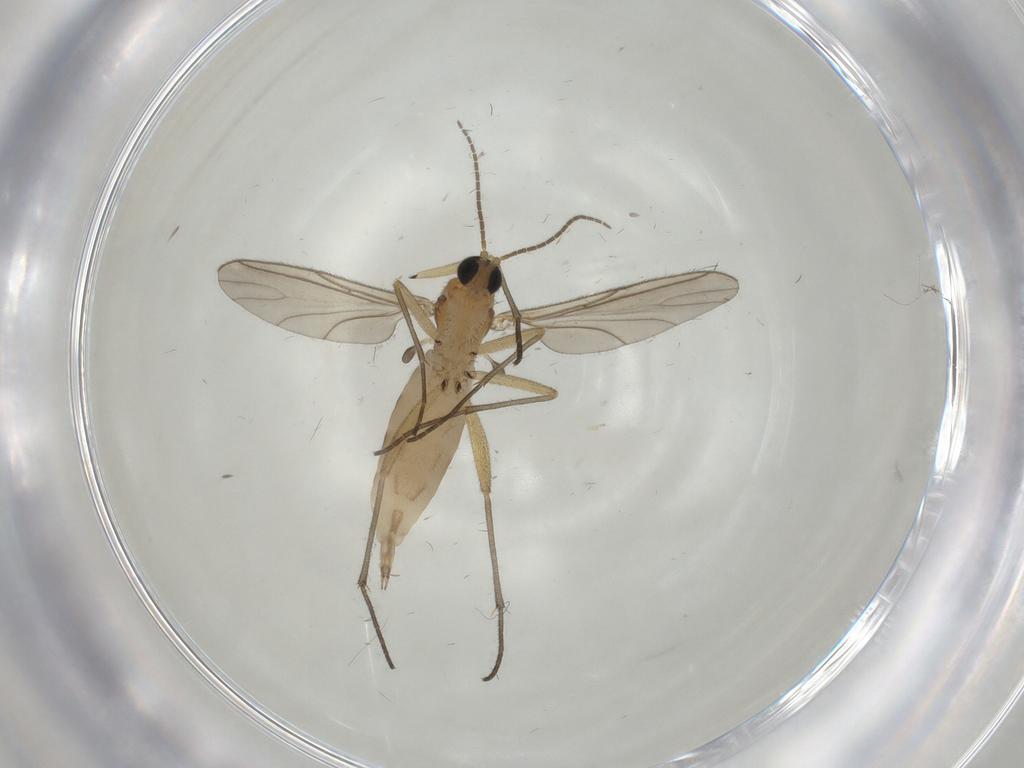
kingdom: Animalia
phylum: Arthropoda
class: Insecta
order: Diptera
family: Sciaridae
